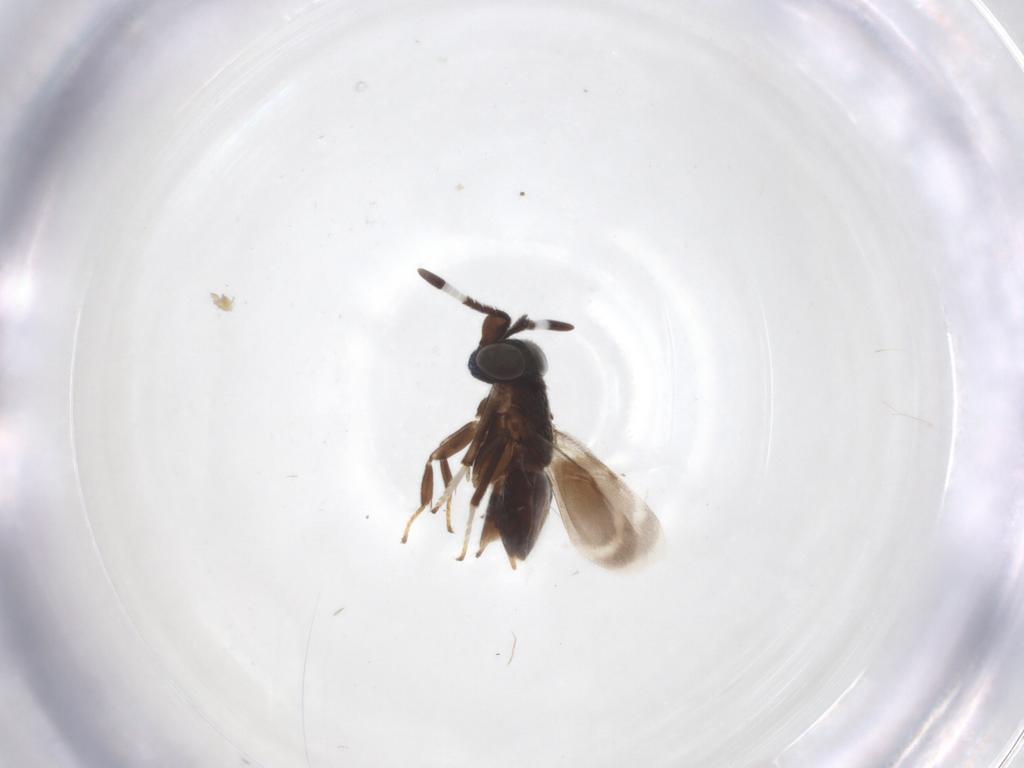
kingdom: Animalia
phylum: Arthropoda
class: Insecta
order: Hymenoptera
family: Encyrtidae
